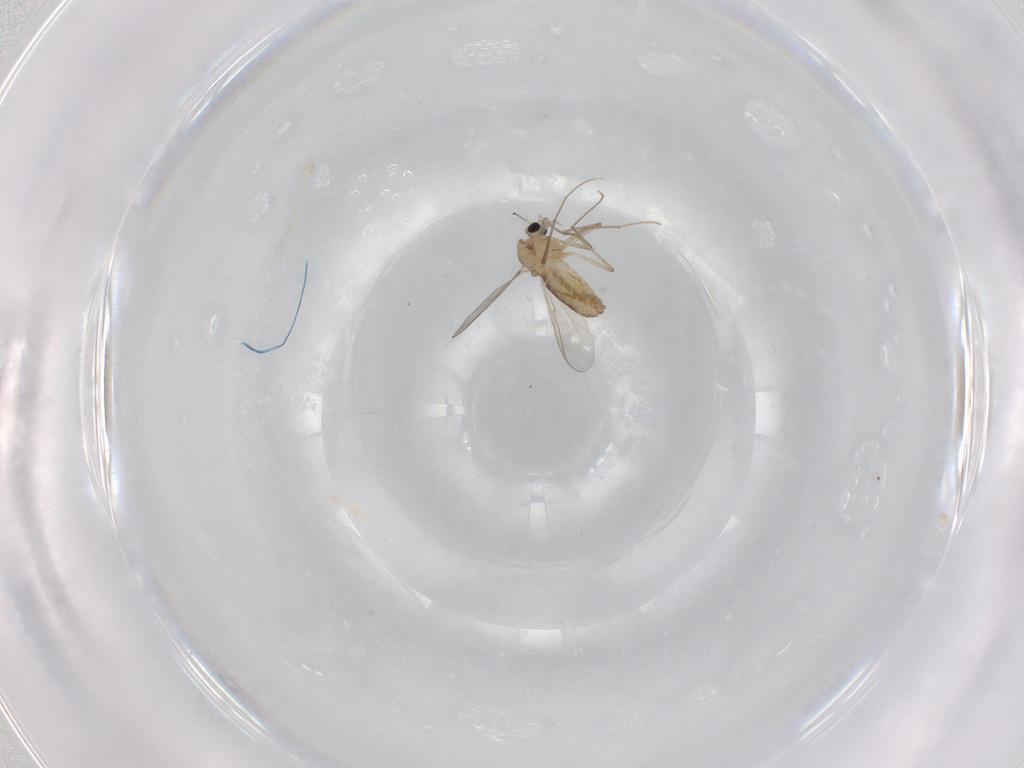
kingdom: Animalia
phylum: Arthropoda
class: Insecta
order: Diptera
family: Chironomidae
